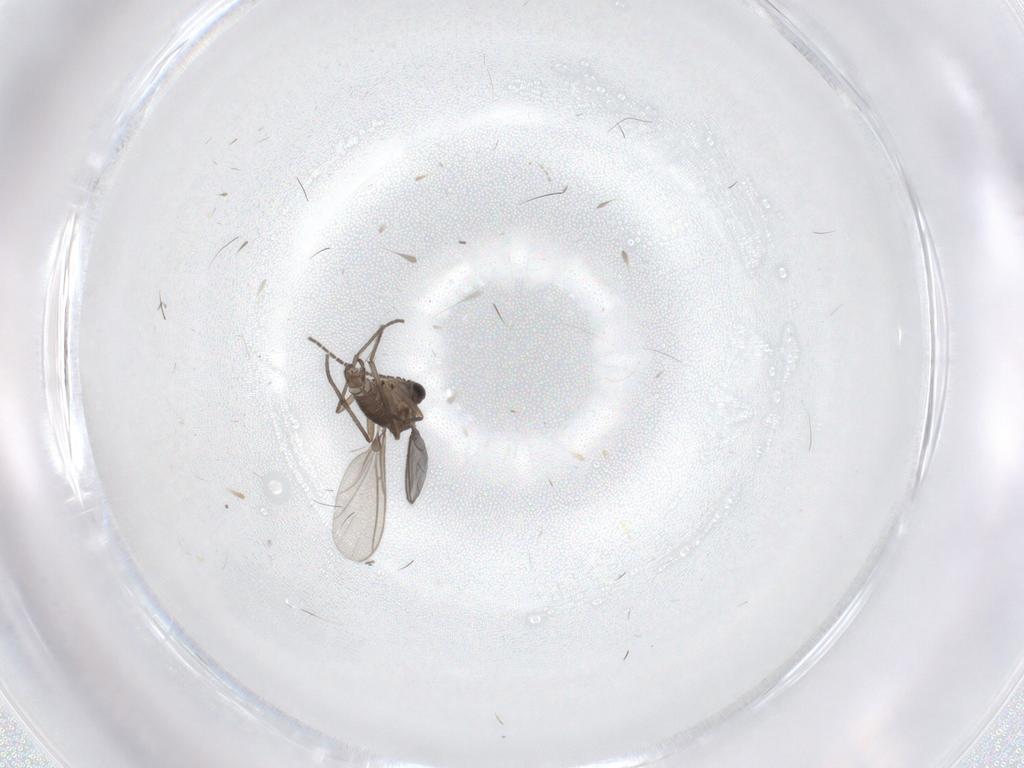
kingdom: Animalia
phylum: Arthropoda
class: Insecta
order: Diptera
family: Sciaridae
